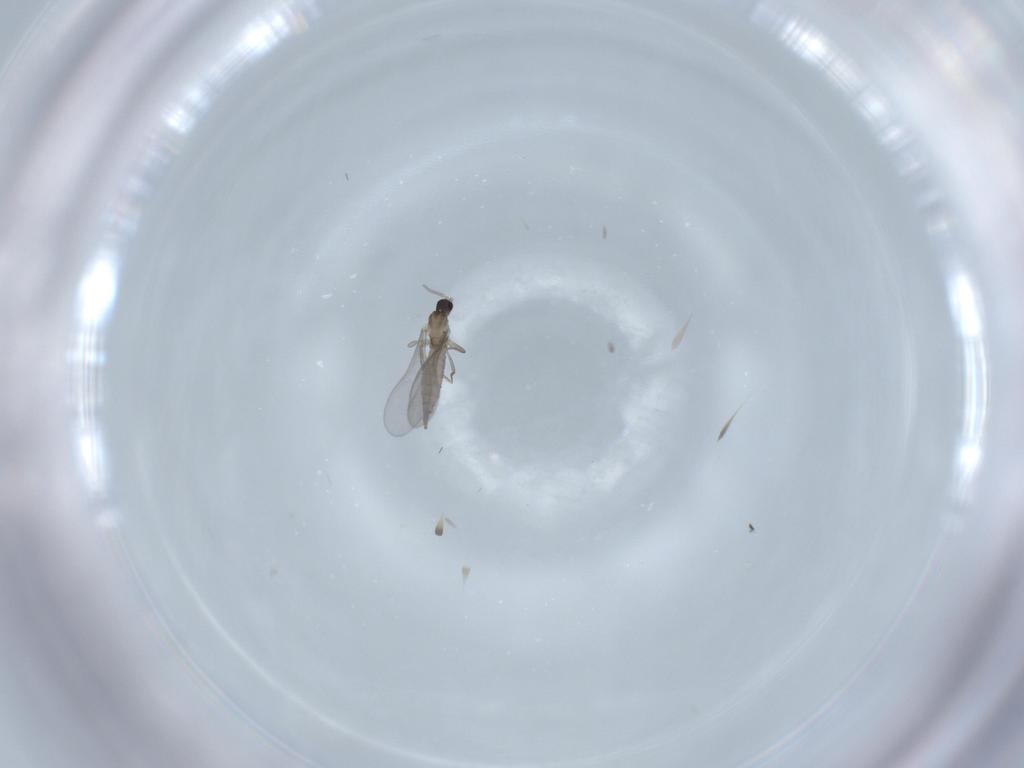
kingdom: Animalia
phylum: Arthropoda
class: Insecta
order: Diptera
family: Cecidomyiidae
